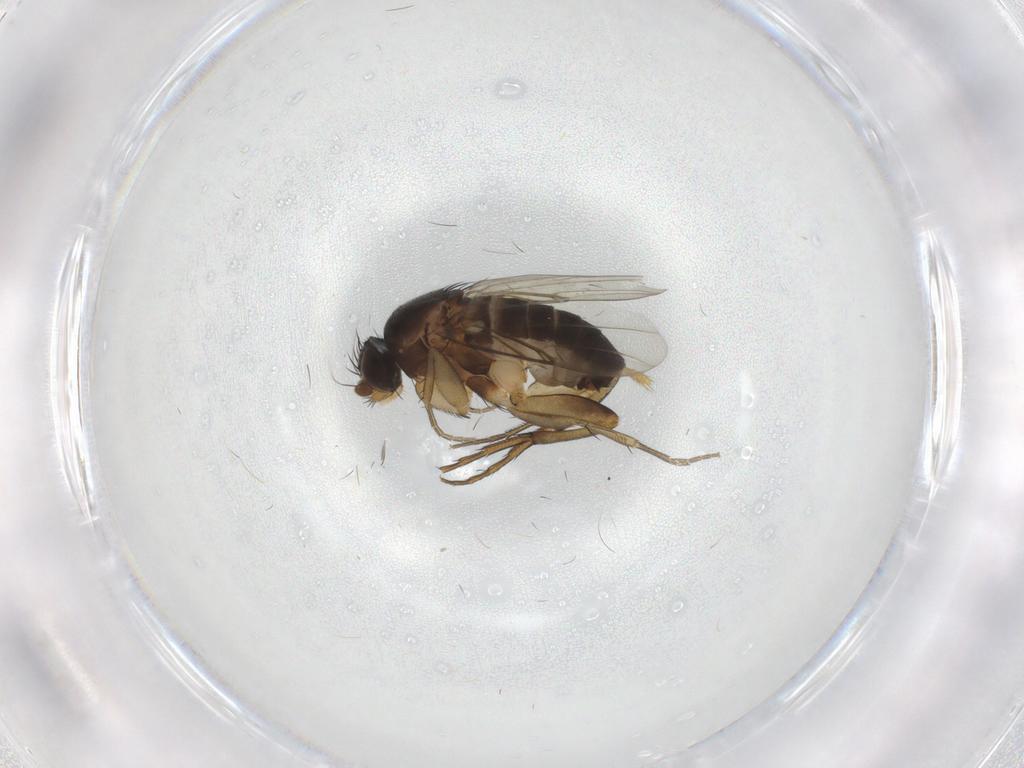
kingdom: Animalia
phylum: Arthropoda
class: Insecta
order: Diptera
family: Phoridae
